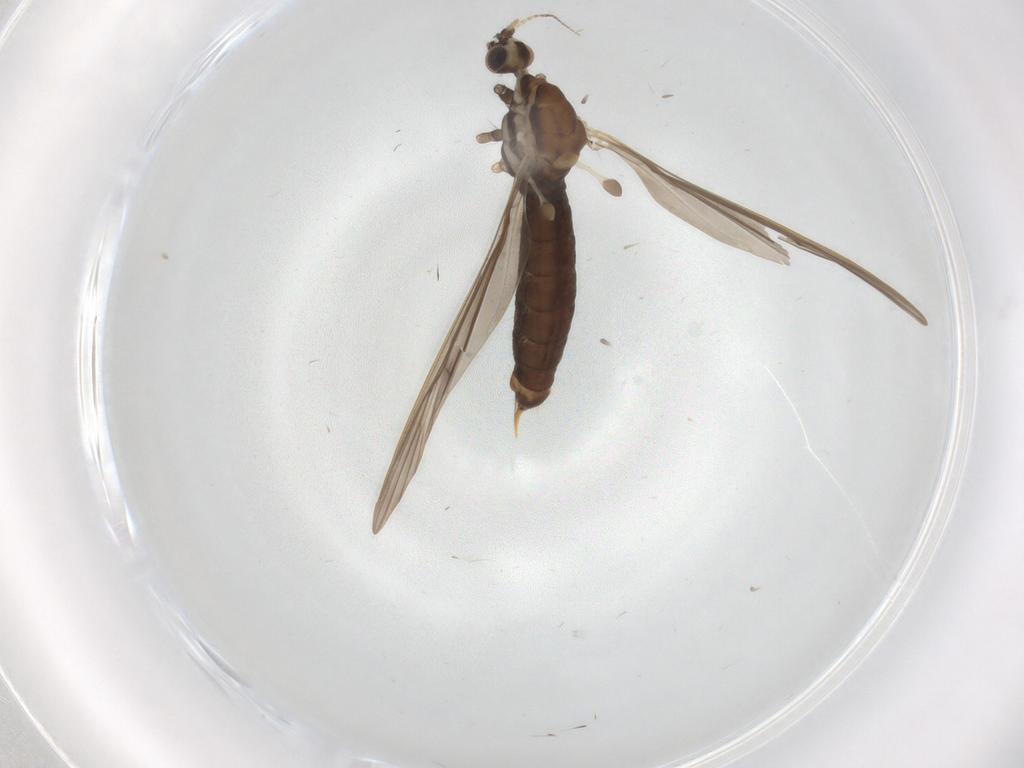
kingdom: Animalia
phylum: Arthropoda
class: Insecta
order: Diptera
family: Limoniidae
